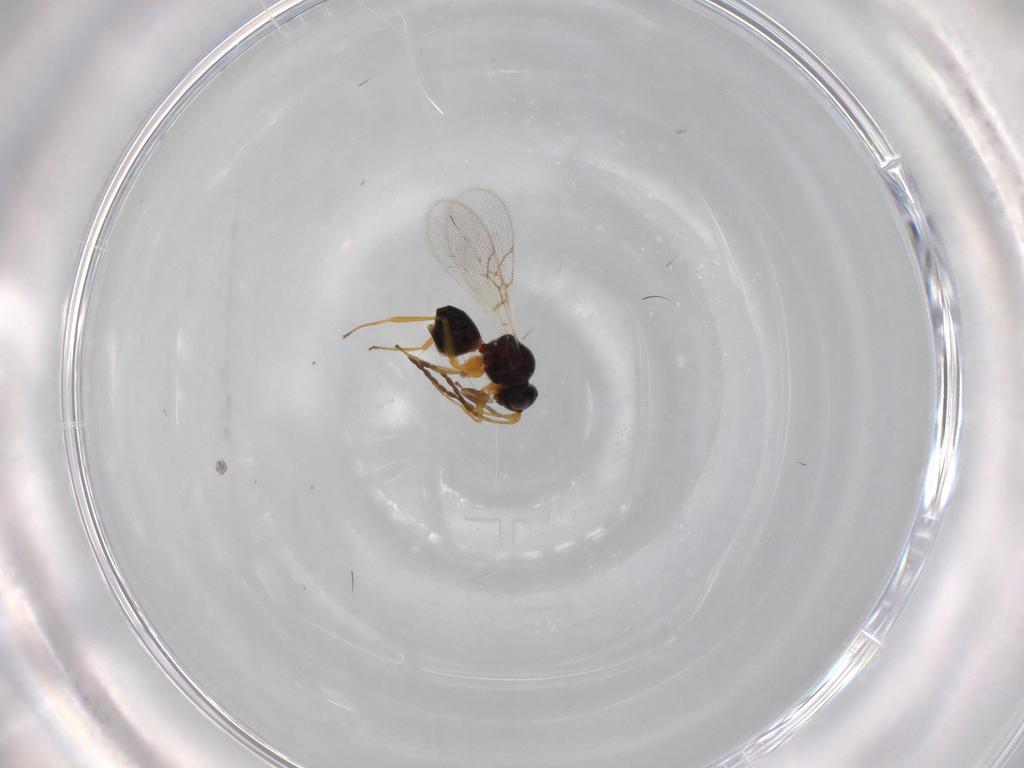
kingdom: Animalia
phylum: Arthropoda
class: Insecta
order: Hymenoptera
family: Figitidae
